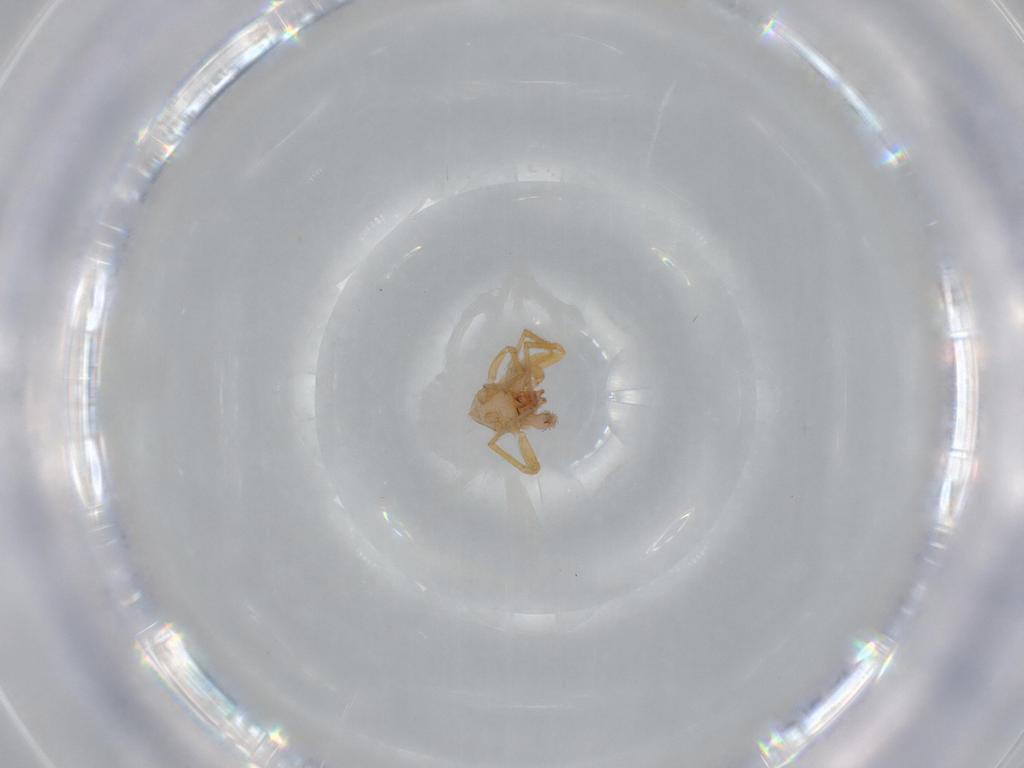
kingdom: Animalia
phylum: Arthropoda
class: Arachnida
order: Araneae
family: Oonopidae
